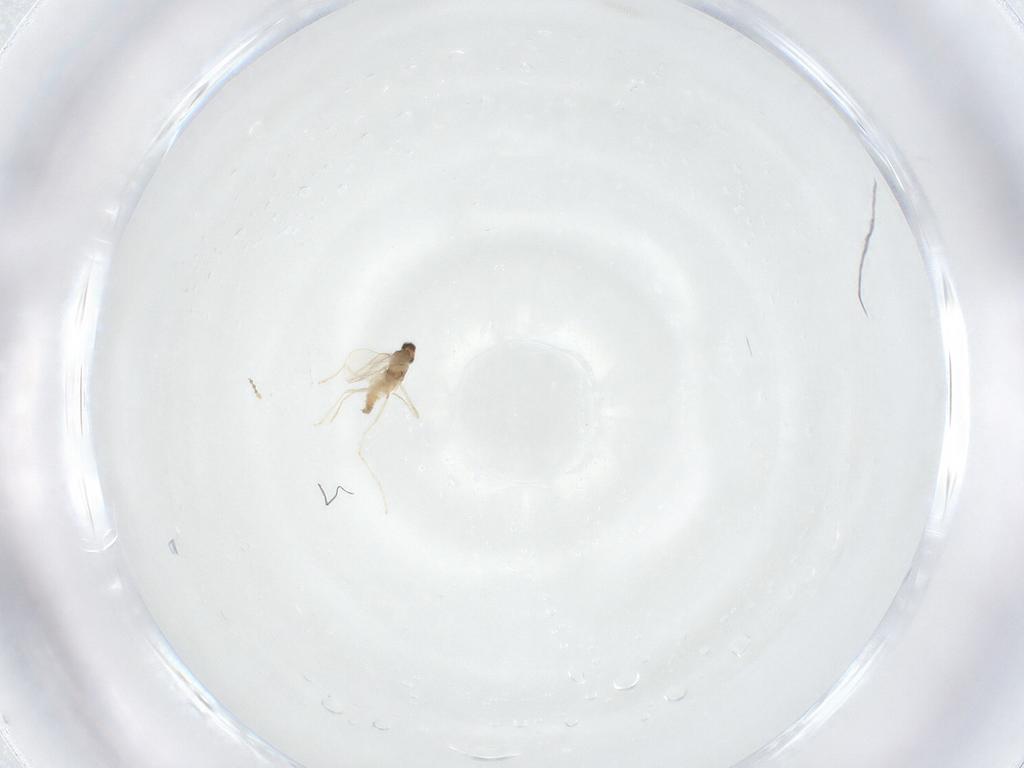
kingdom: Animalia
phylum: Arthropoda
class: Insecta
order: Diptera
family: Cecidomyiidae
